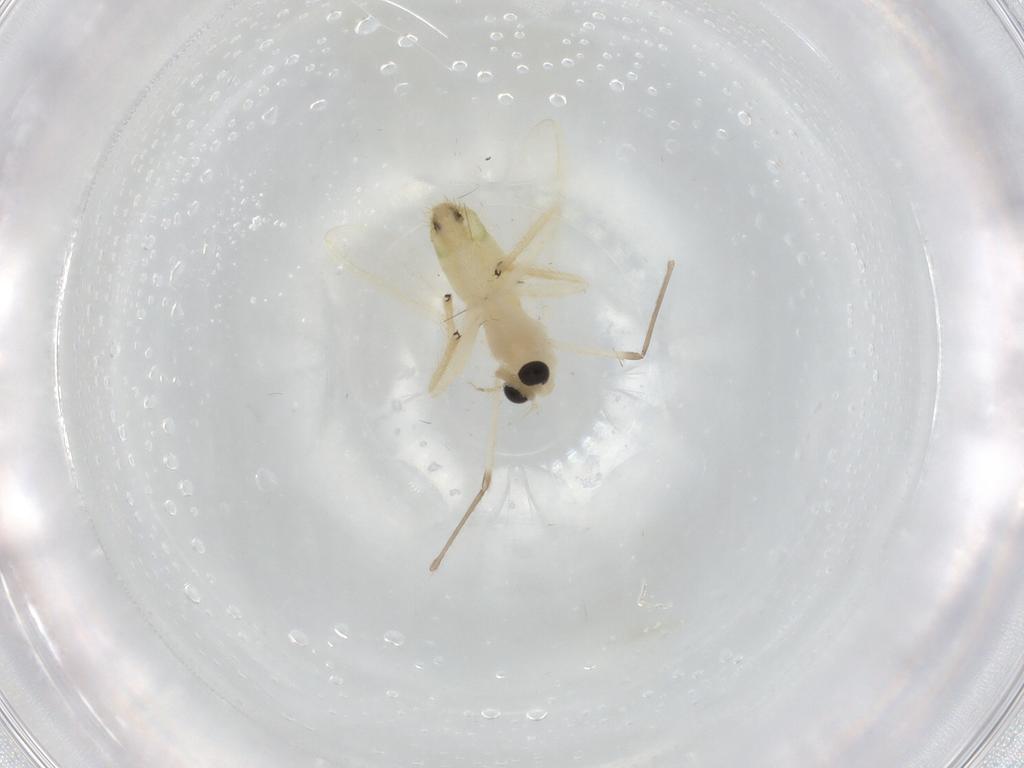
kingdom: Animalia
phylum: Arthropoda
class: Insecta
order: Diptera
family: Chironomidae
